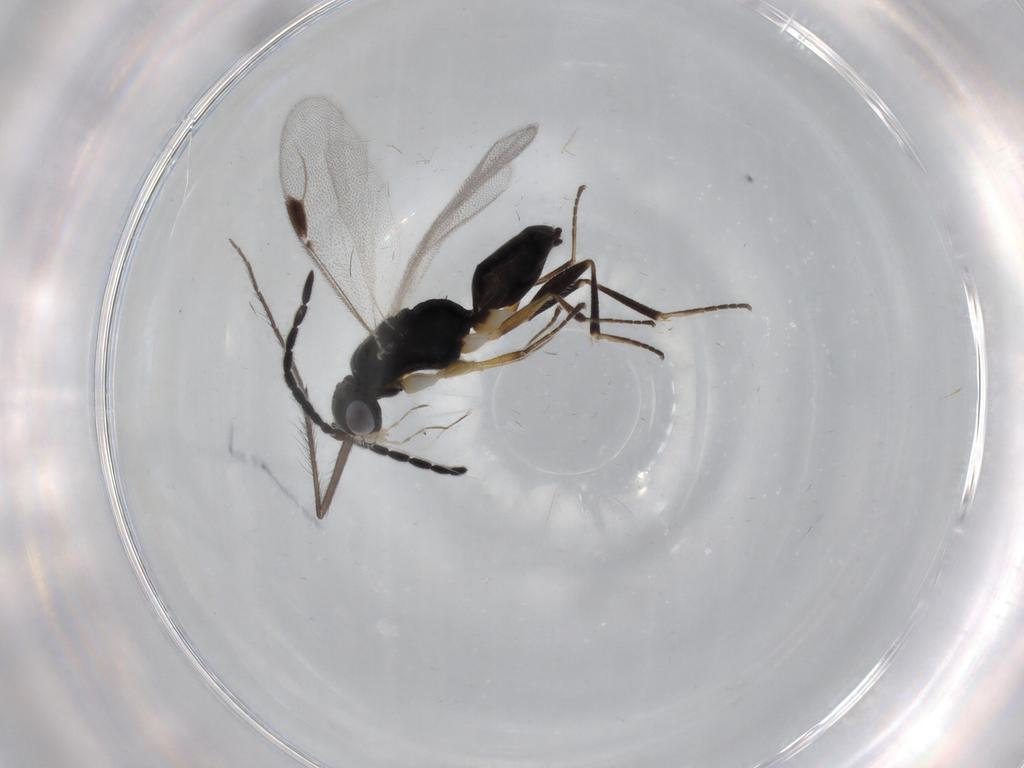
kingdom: Animalia
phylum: Arthropoda
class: Insecta
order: Hymenoptera
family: Dryinidae
